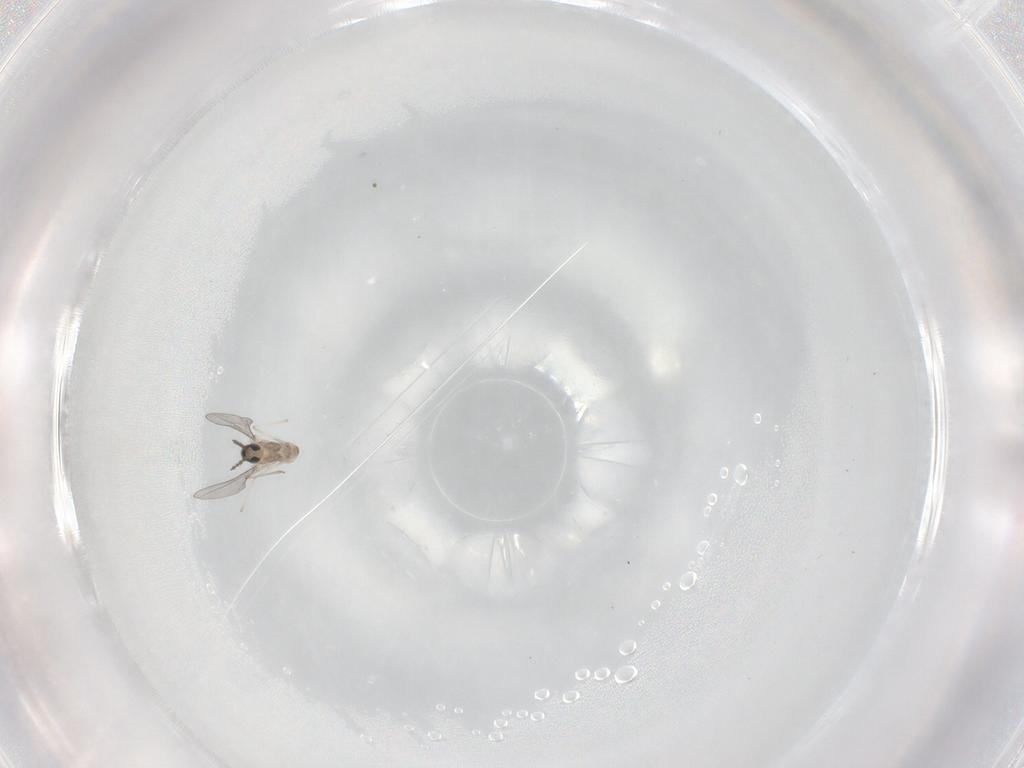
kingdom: Animalia
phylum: Arthropoda
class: Insecta
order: Diptera
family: Cecidomyiidae
